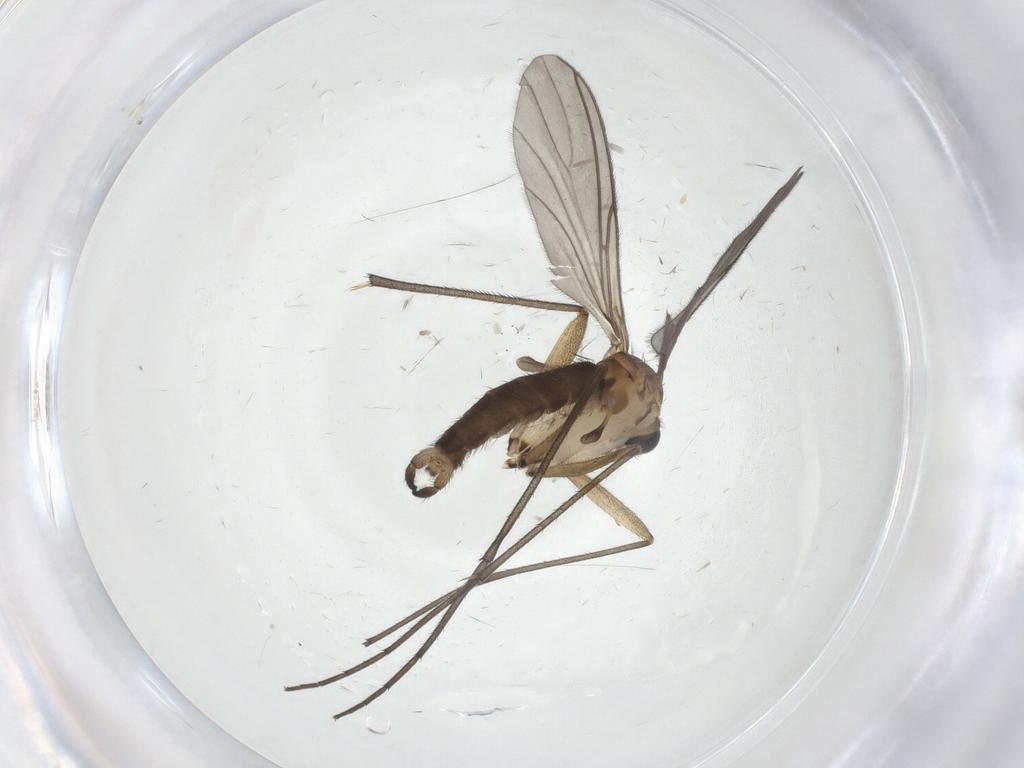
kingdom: Animalia
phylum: Arthropoda
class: Insecta
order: Diptera
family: Sciaridae
